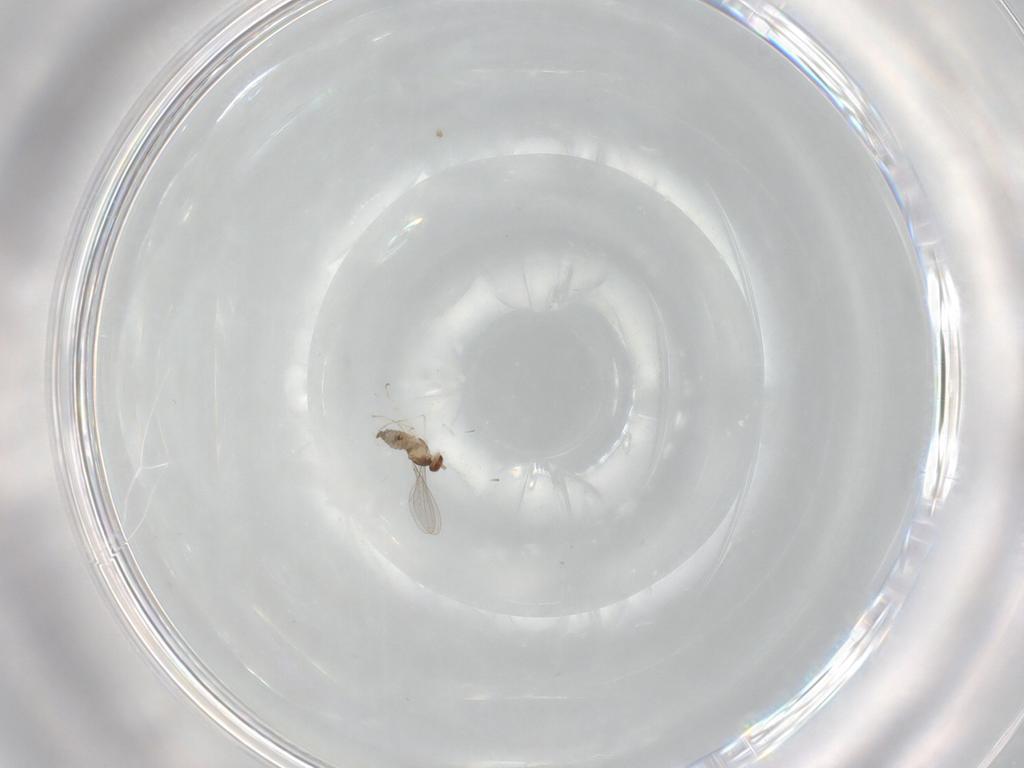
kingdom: Animalia
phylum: Arthropoda
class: Insecta
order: Diptera
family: Cecidomyiidae
